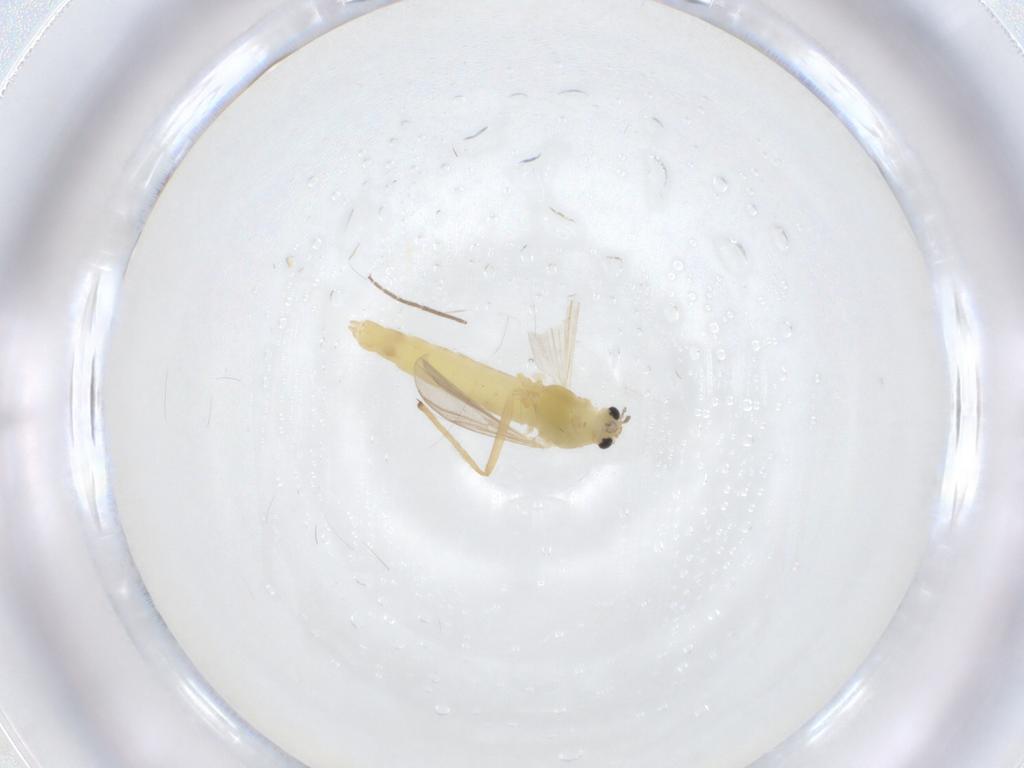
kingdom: Animalia
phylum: Arthropoda
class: Insecta
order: Diptera
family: Chironomidae
